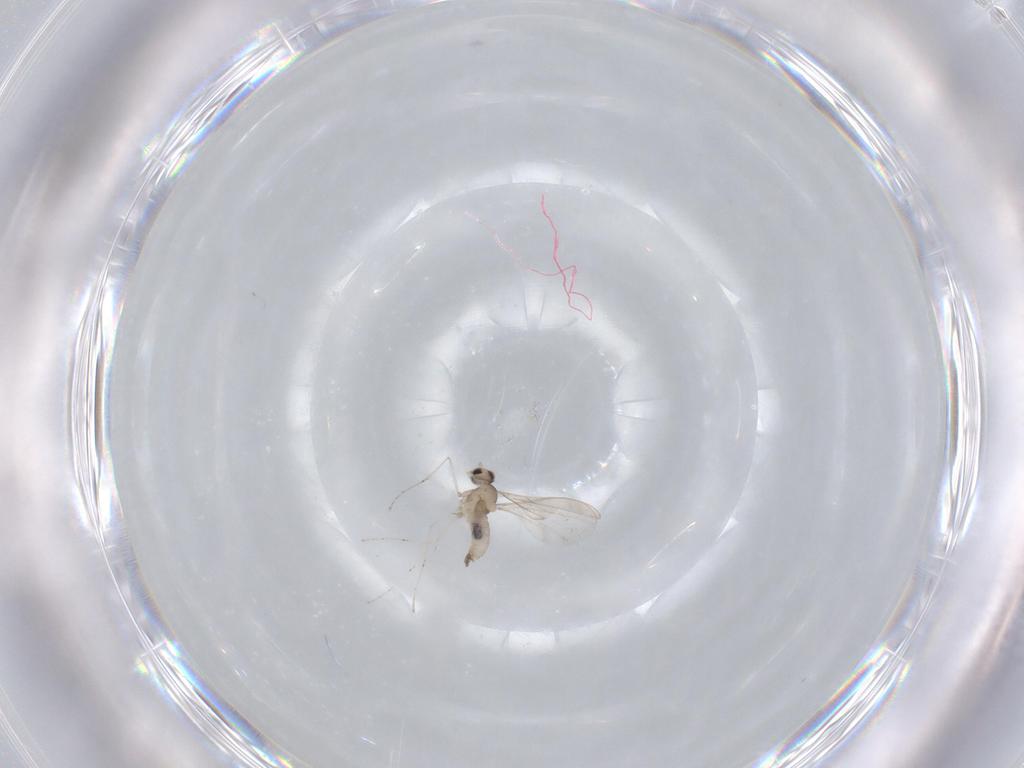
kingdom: Animalia
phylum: Arthropoda
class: Insecta
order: Diptera
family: Cecidomyiidae
